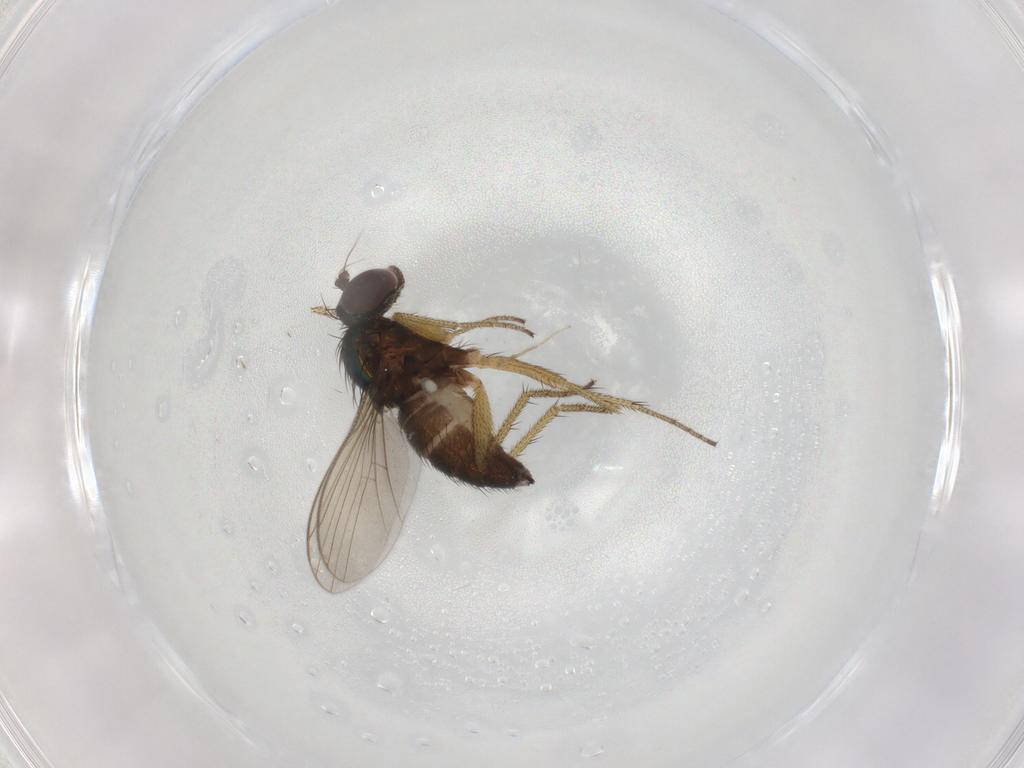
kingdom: Animalia
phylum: Arthropoda
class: Insecta
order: Diptera
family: Dolichopodidae
